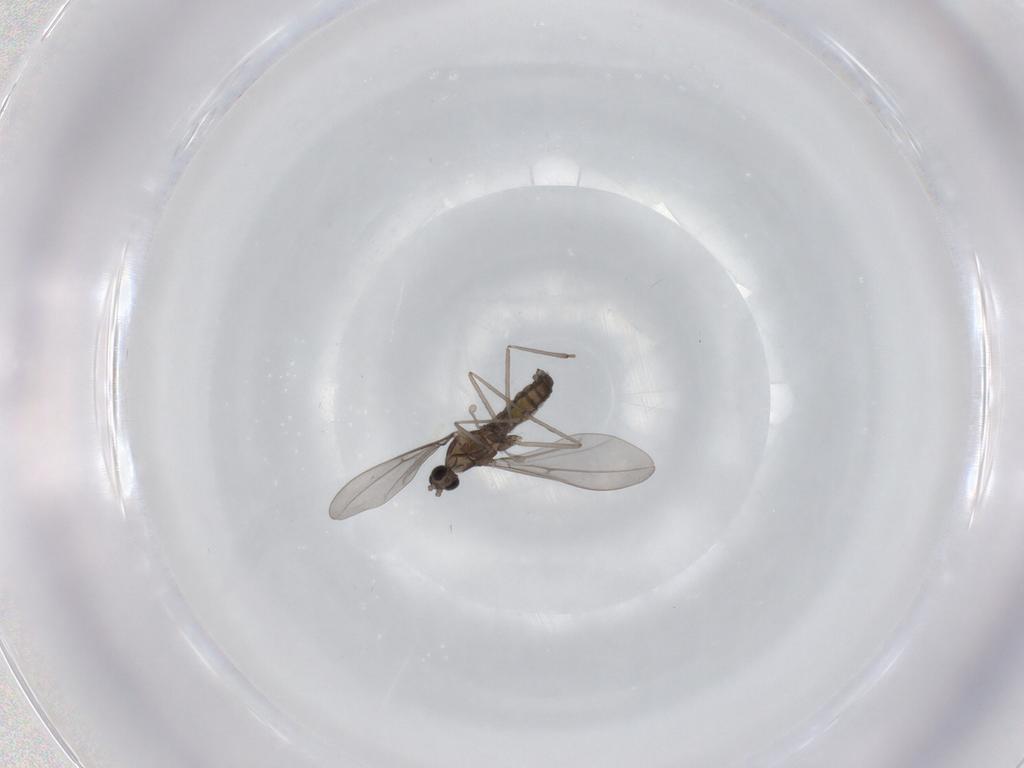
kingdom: Animalia
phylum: Arthropoda
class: Insecta
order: Diptera
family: Cecidomyiidae
